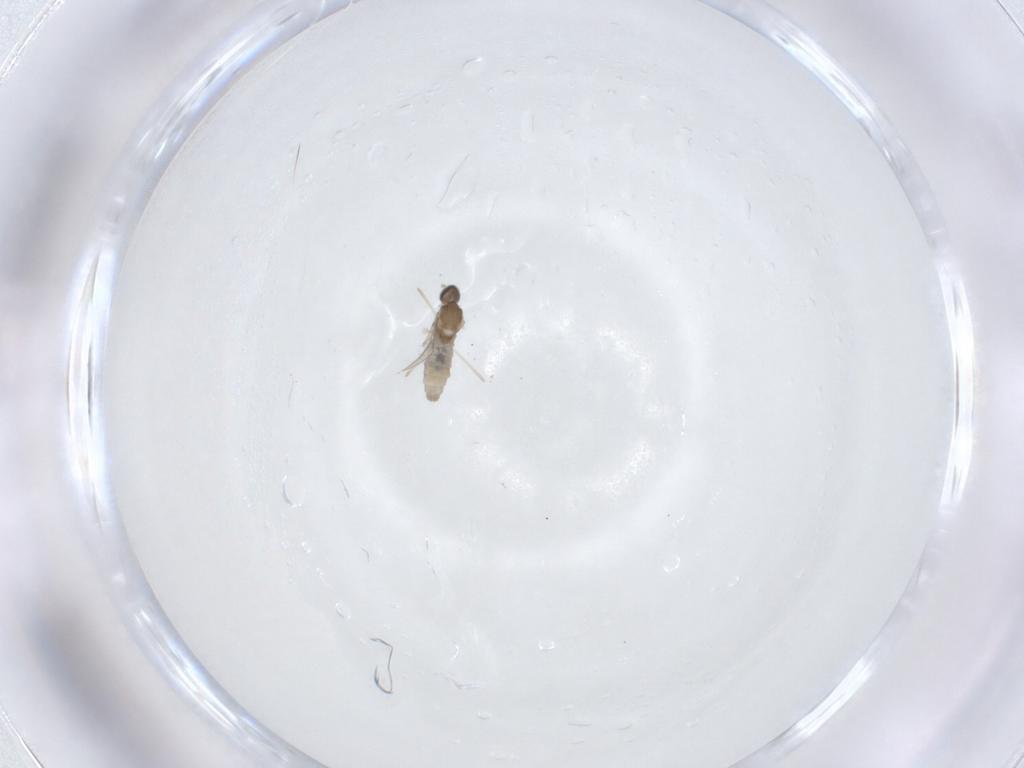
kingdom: Animalia
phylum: Arthropoda
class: Insecta
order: Diptera
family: Cecidomyiidae
